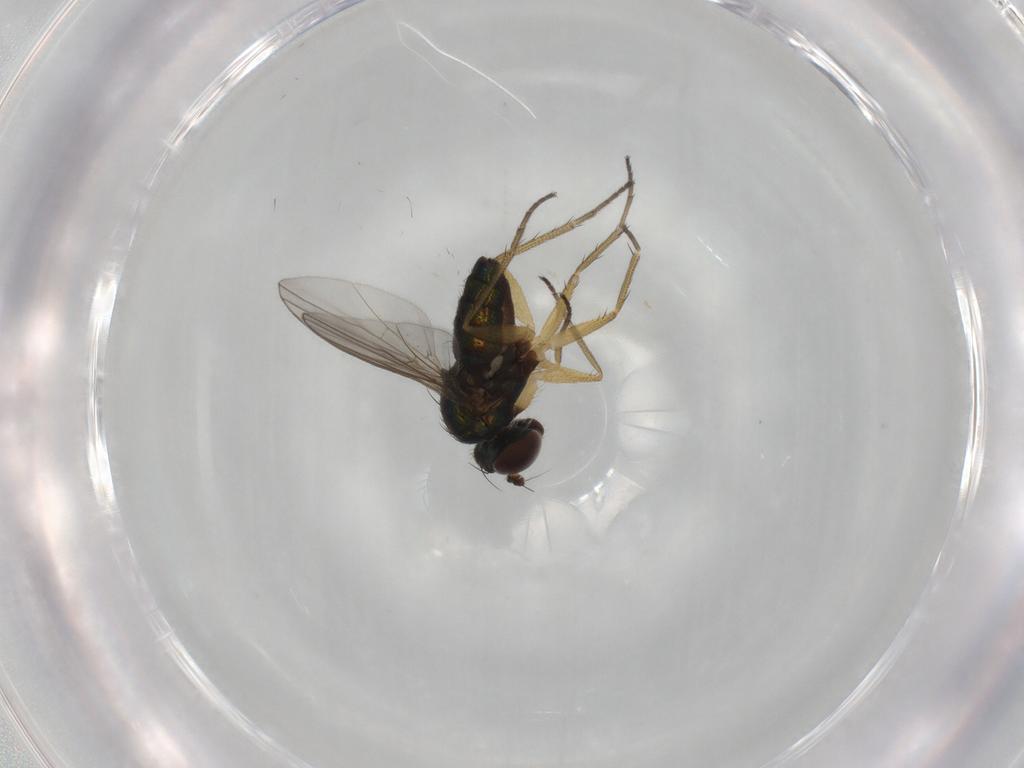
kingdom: Animalia
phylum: Arthropoda
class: Insecta
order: Diptera
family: Dolichopodidae
